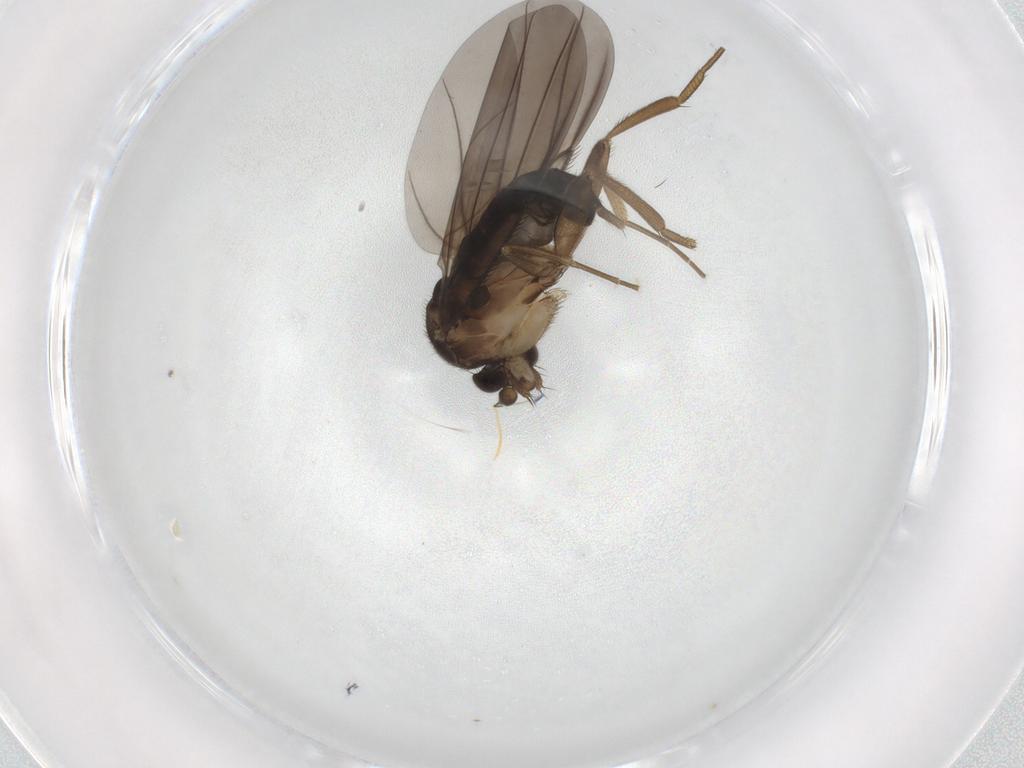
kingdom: Animalia
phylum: Arthropoda
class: Insecta
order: Diptera
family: Phoridae
